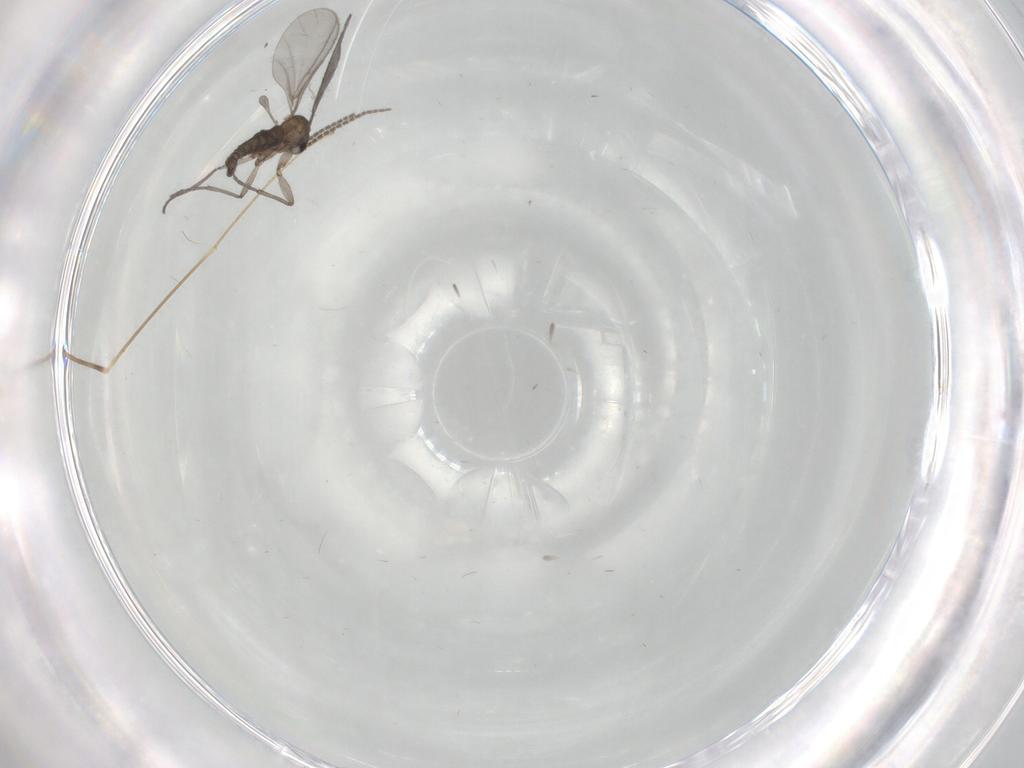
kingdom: Animalia
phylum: Arthropoda
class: Insecta
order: Diptera
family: Sciaridae
